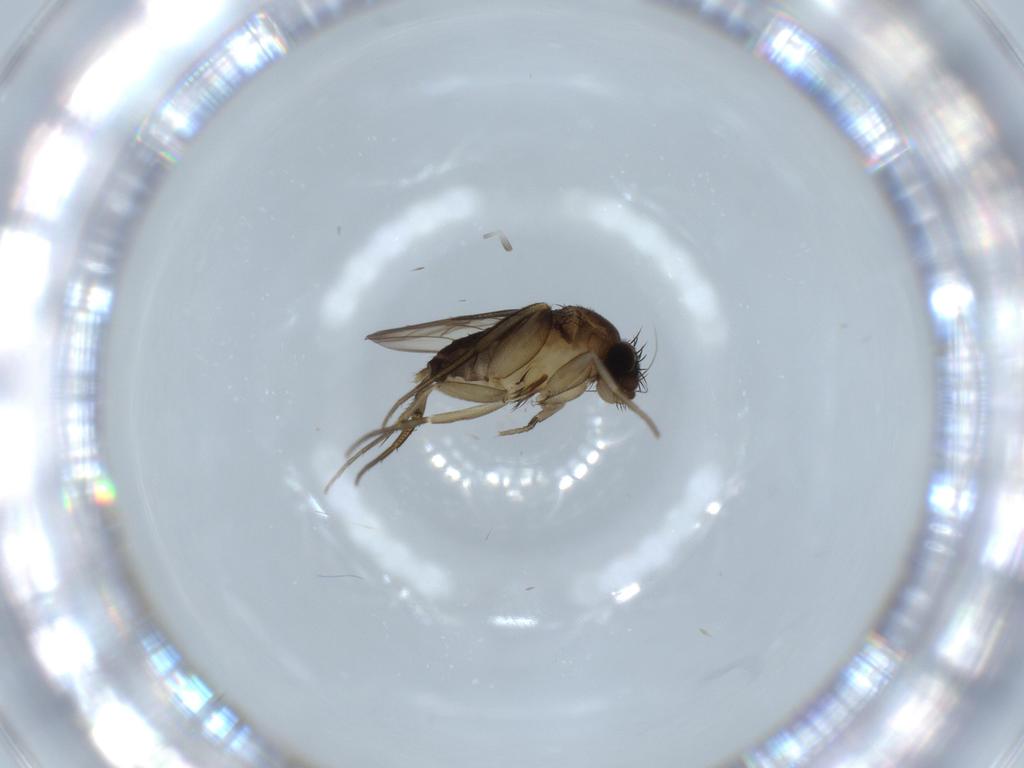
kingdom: Animalia
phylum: Arthropoda
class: Insecta
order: Diptera
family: Phoridae
